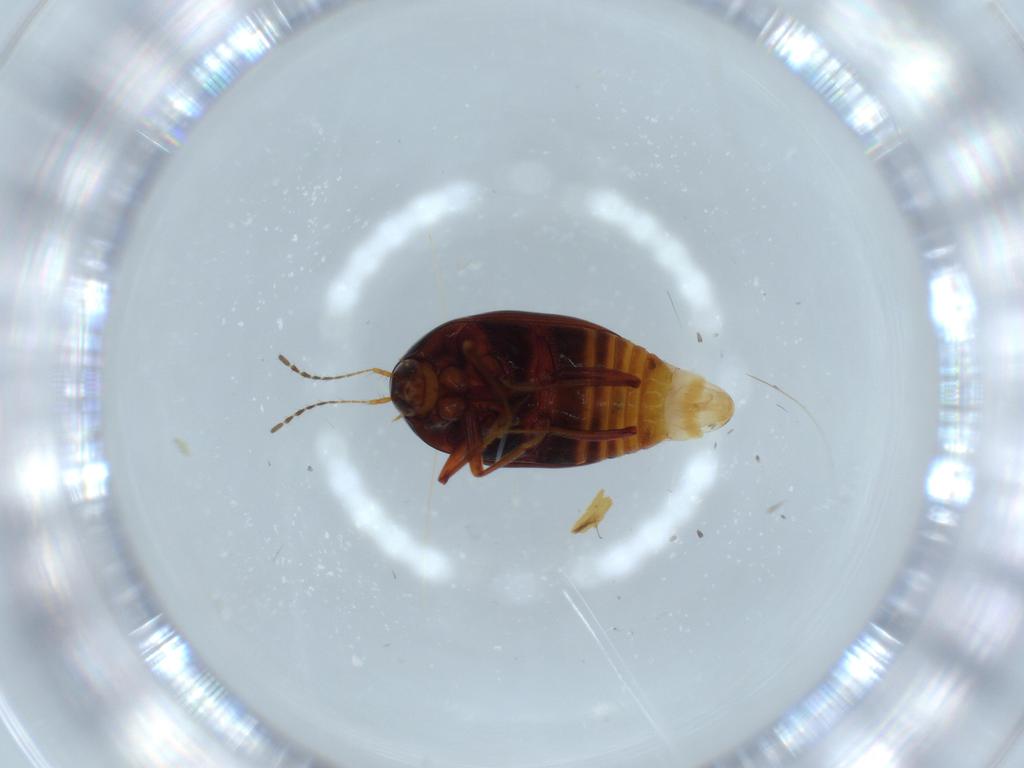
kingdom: Animalia
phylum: Arthropoda
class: Insecta
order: Coleoptera
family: Staphylinidae
